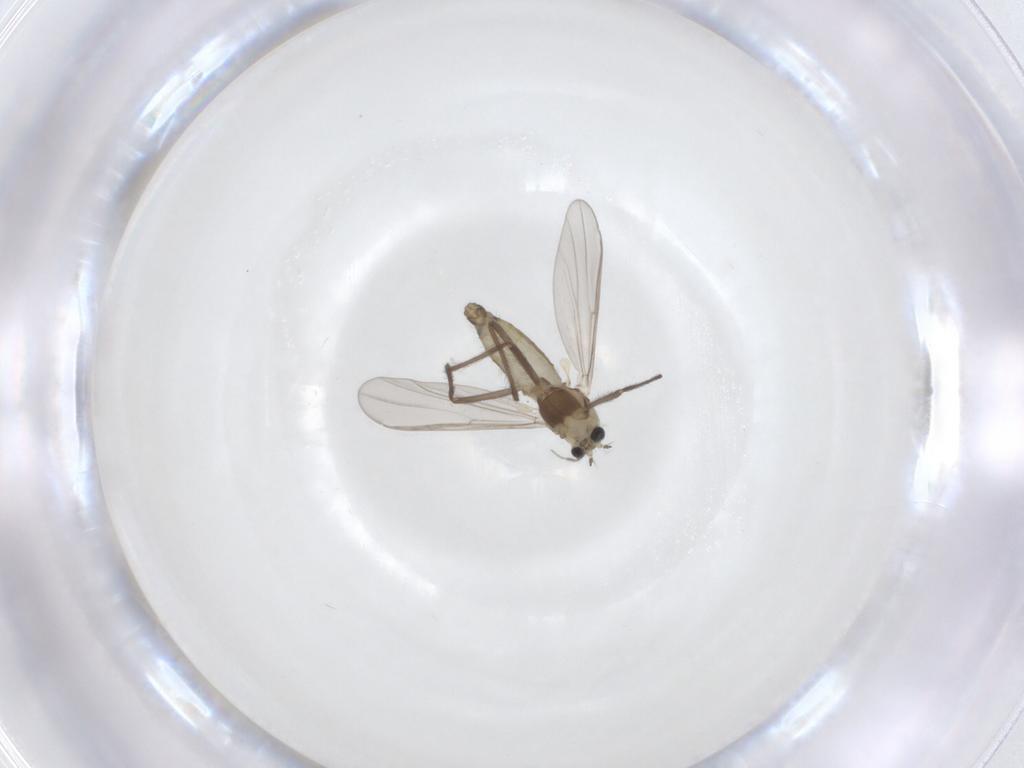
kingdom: Animalia
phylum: Arthropoda
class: Insecta
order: Diptera
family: Chironomidae
